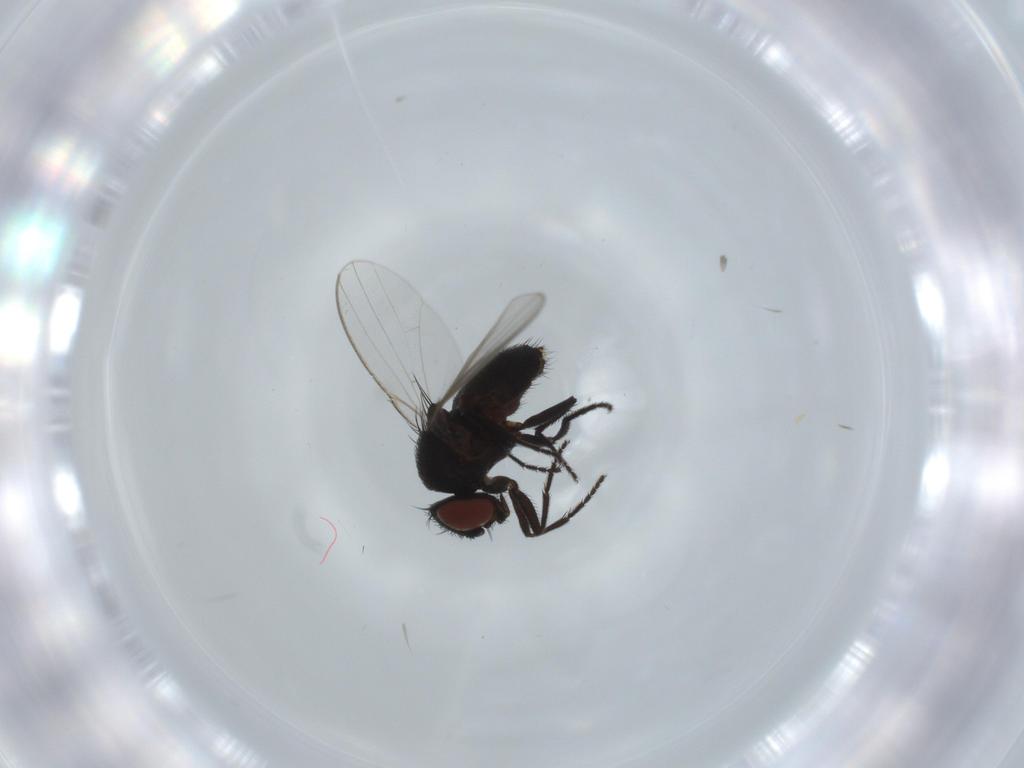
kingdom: Animalia
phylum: Arthropoda
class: Insecta
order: Diptera
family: Milichiidae
